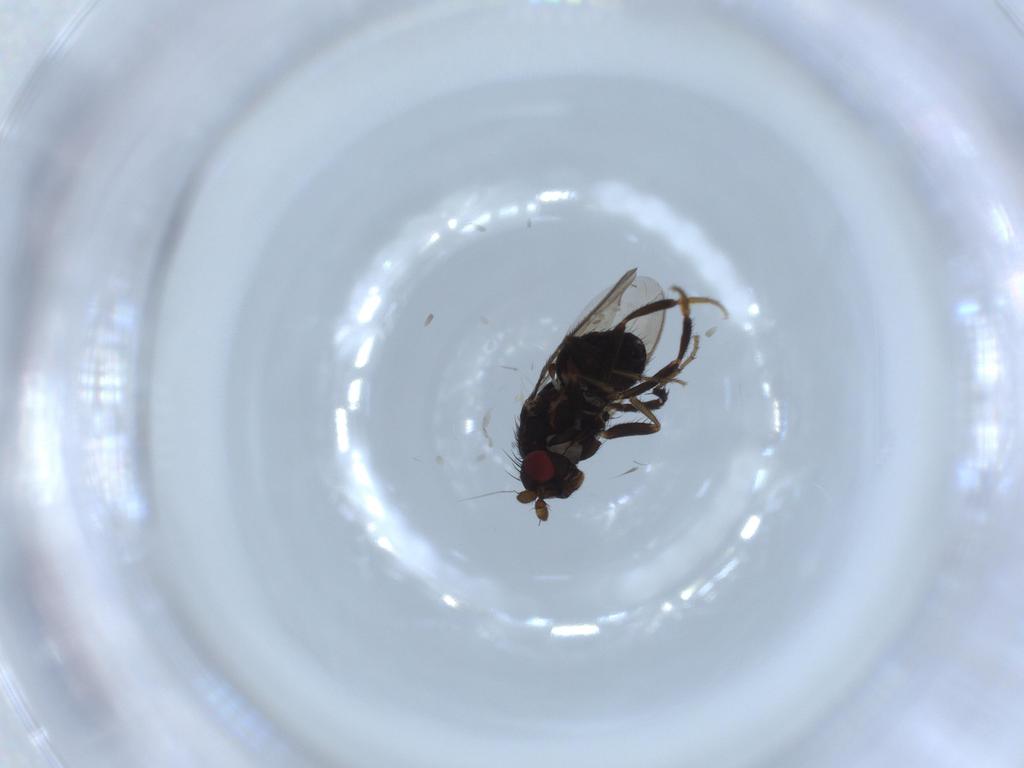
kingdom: Animalia
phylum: Arthropoda
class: Insecta
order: Diptera
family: Sphaeroceridae
